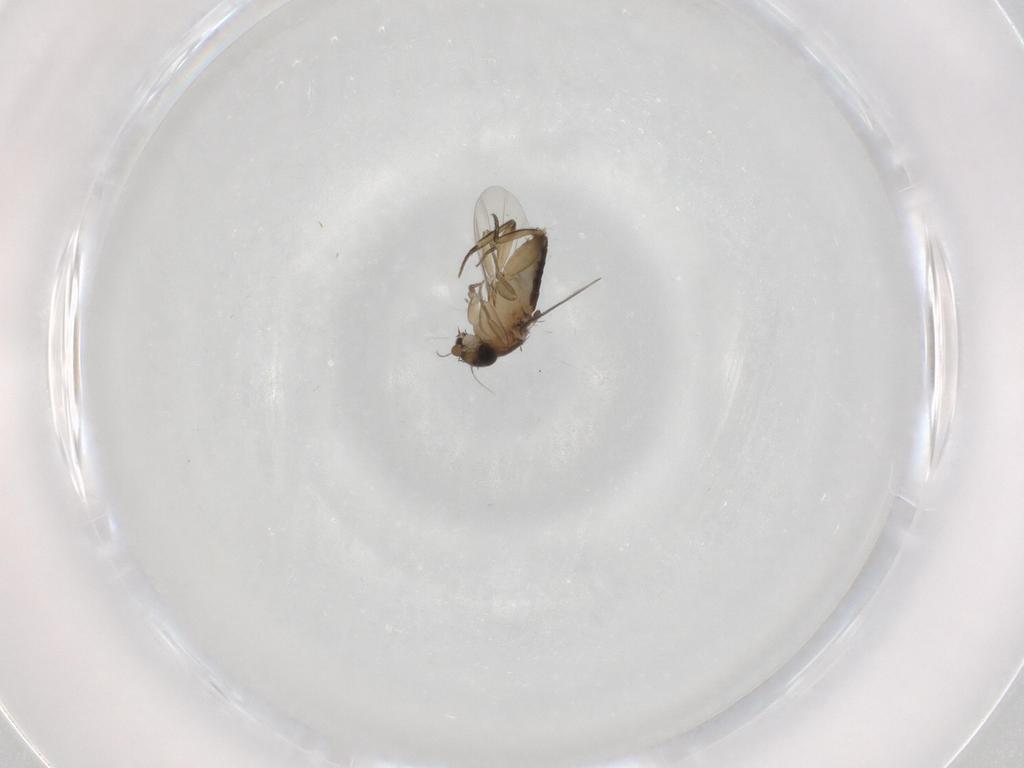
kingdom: Animalia
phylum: Arthropoda
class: Insecta
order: Diptera
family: Phoridae
